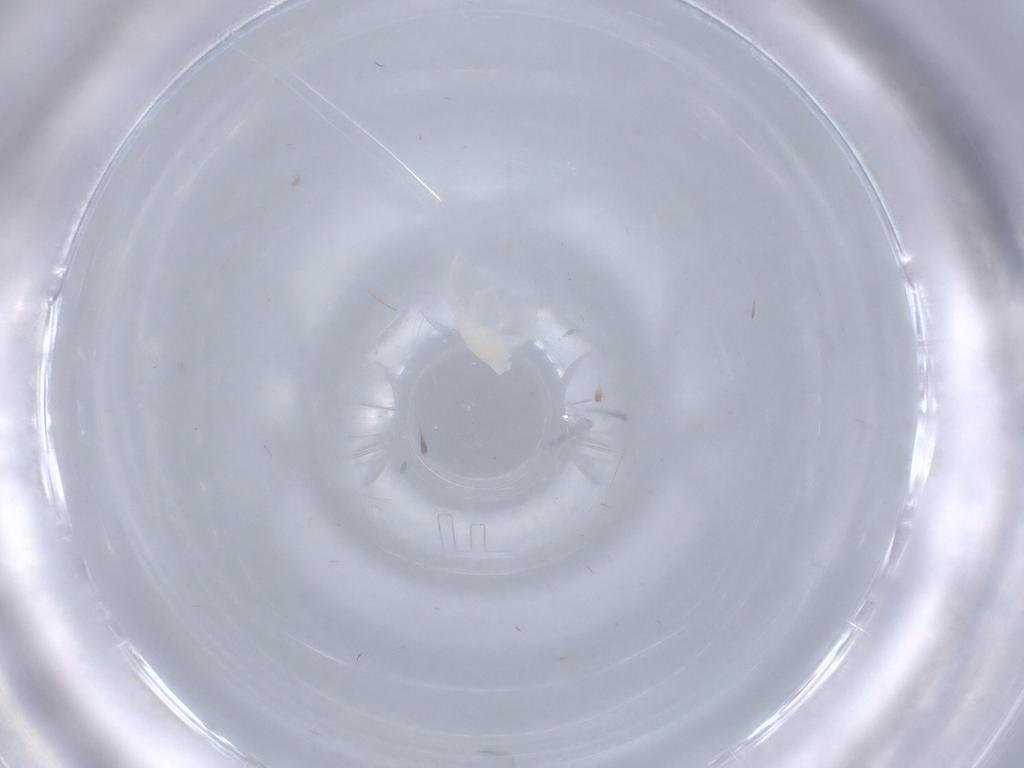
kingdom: Animalia
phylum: Arthropoda
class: Arachnida
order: Trombidiformes
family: Rhagidiidae
